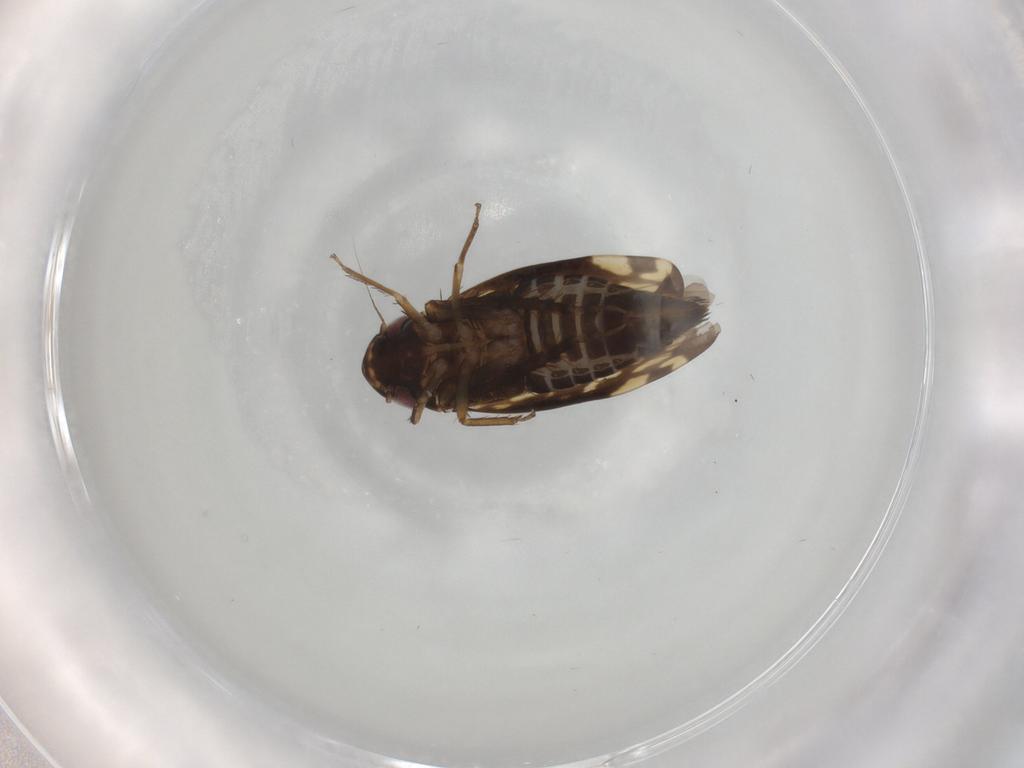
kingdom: Animalia
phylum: Arthropoda
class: Insecta
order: Hemiptera
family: Cicadellidae
